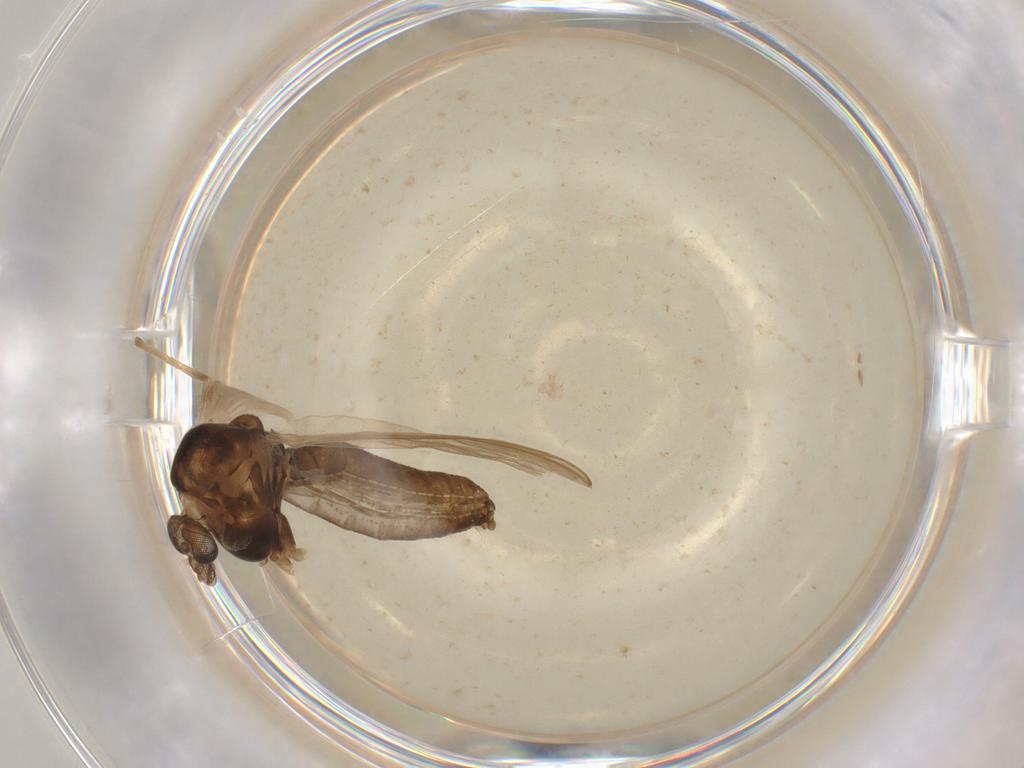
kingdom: Animalia
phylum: Arthropoda
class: Insecta
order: Diptera
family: Chironomidae
